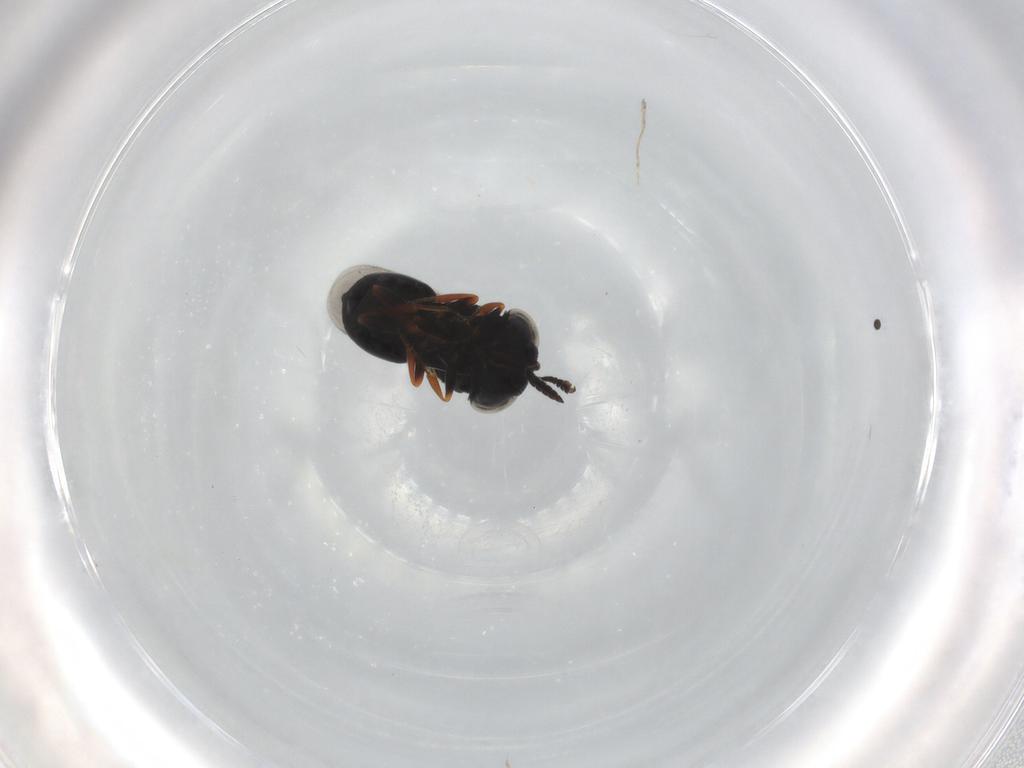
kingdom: Animalia
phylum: Arthropoda
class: Insecta
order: Hymenoptera
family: Scelionidae
